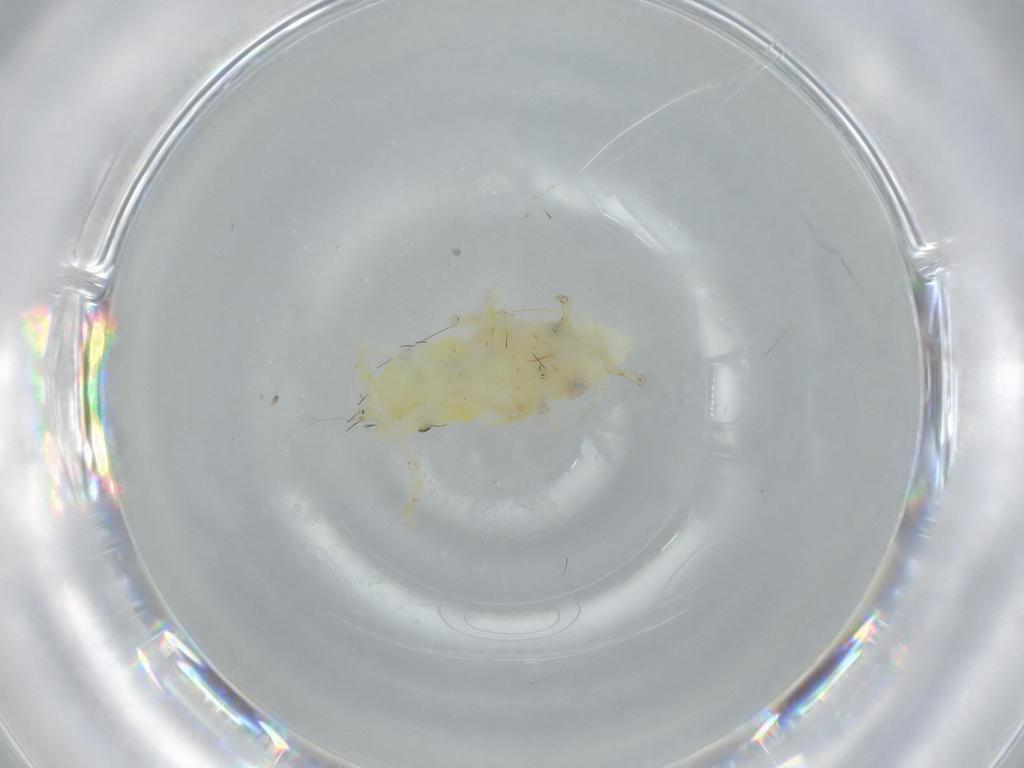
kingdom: Animalia
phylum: Arthropoda
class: Insecta
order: Hemiptera
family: Cicadellidae
